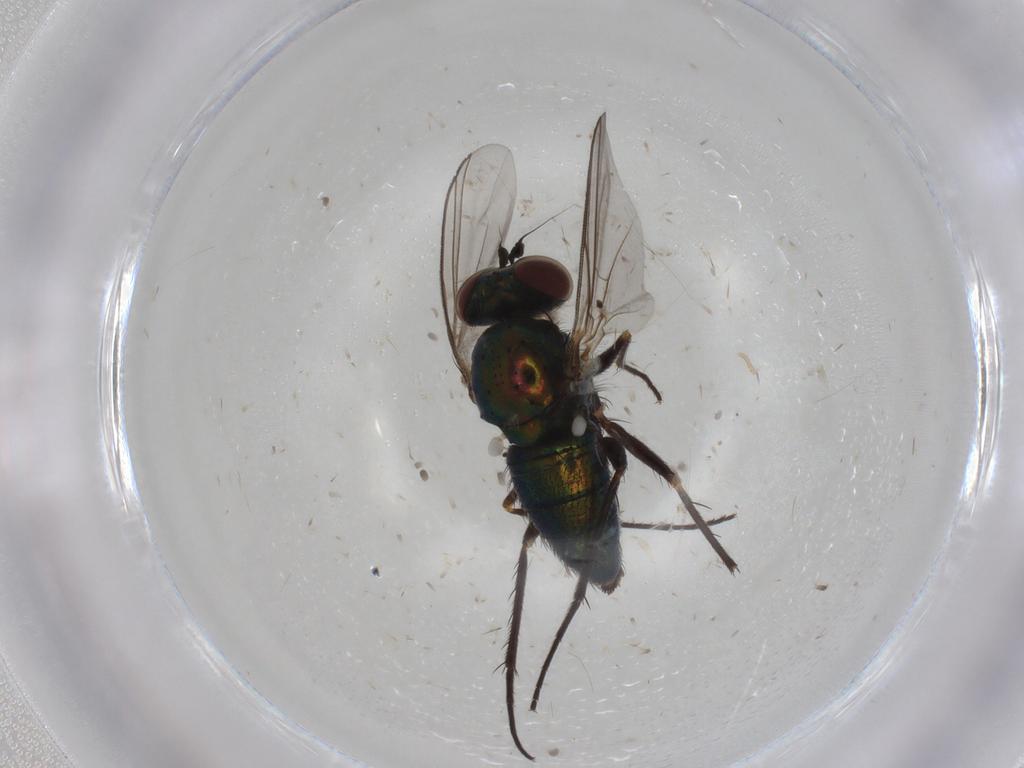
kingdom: Animalia
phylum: Arthropoda
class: Insecta
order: Diptera
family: Dolichopodidae
